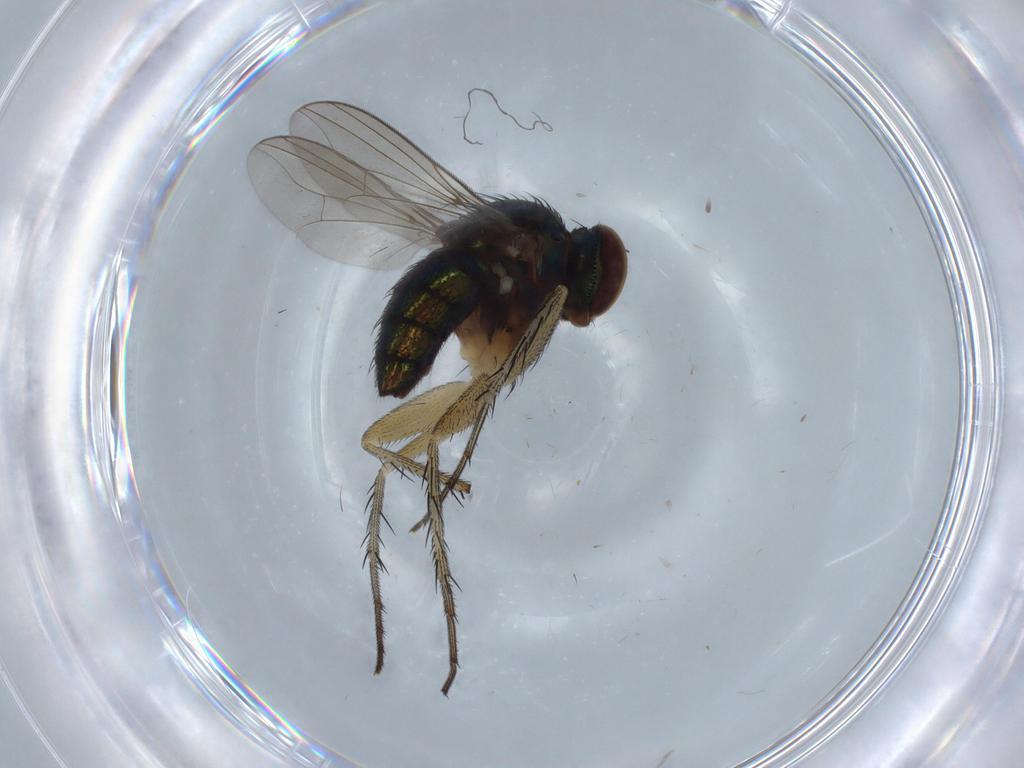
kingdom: Animalia
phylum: Arthropoda
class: Insecta
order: Diptera
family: Dolichopodidae
